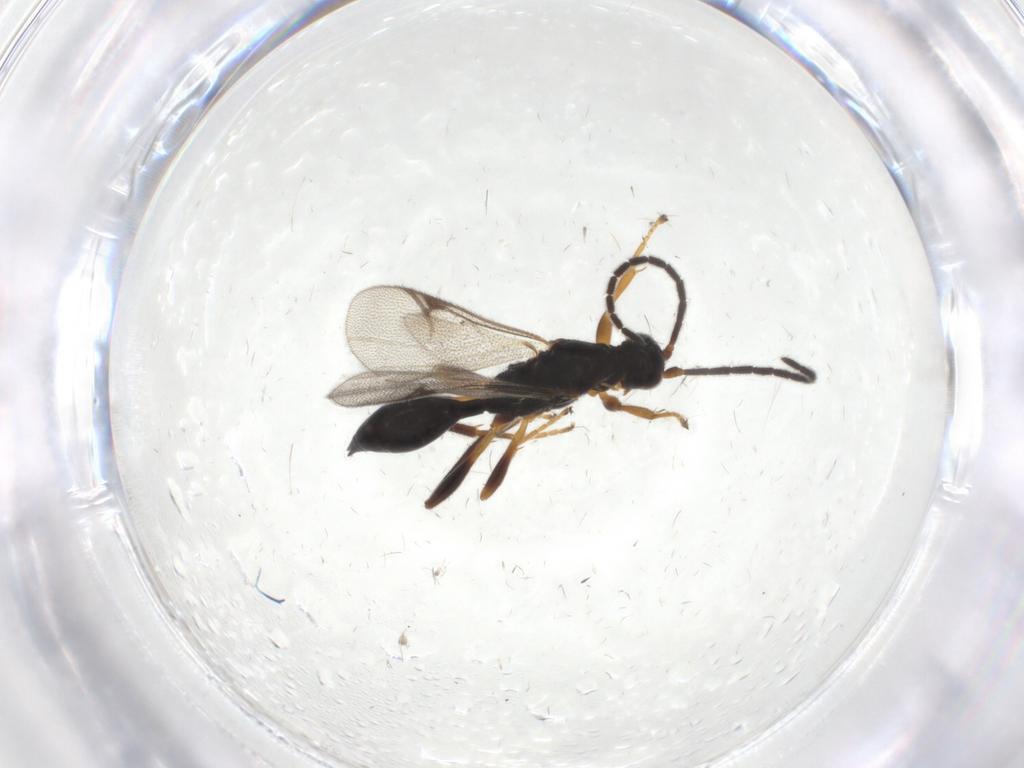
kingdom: Animalia
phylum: Arthropoda
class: Insecta
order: Hymenoptera
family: Proctotrupidae
